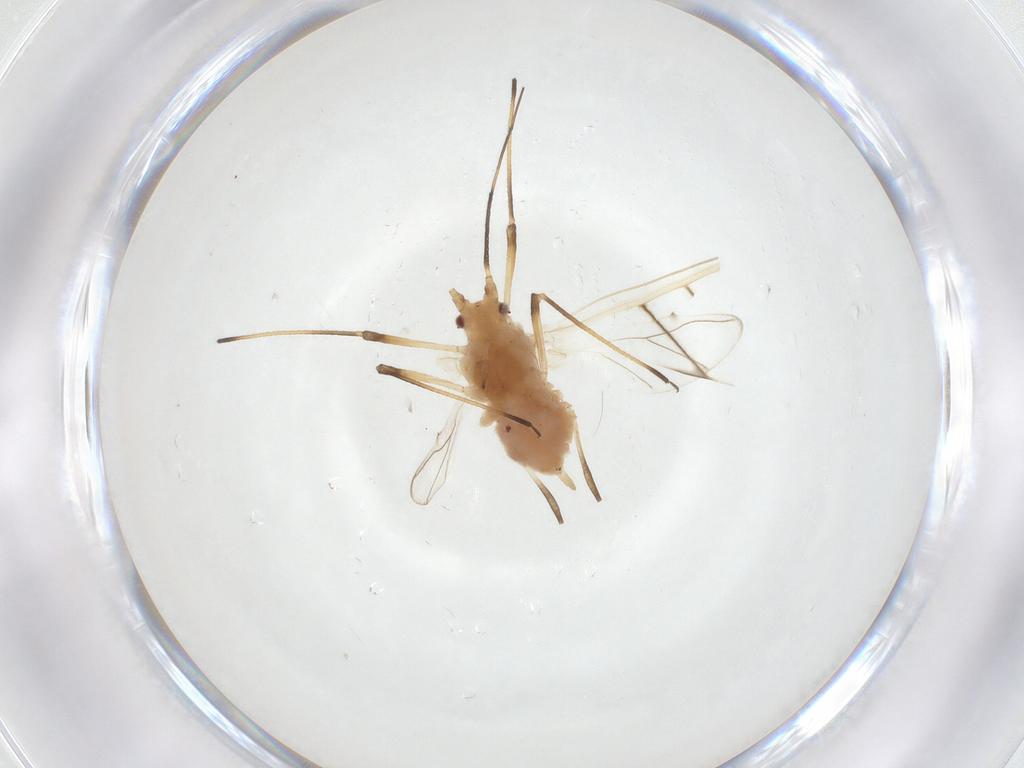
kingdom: Animalia
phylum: Arthropoda
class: Insecta
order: Hemiptera
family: Aphididae
